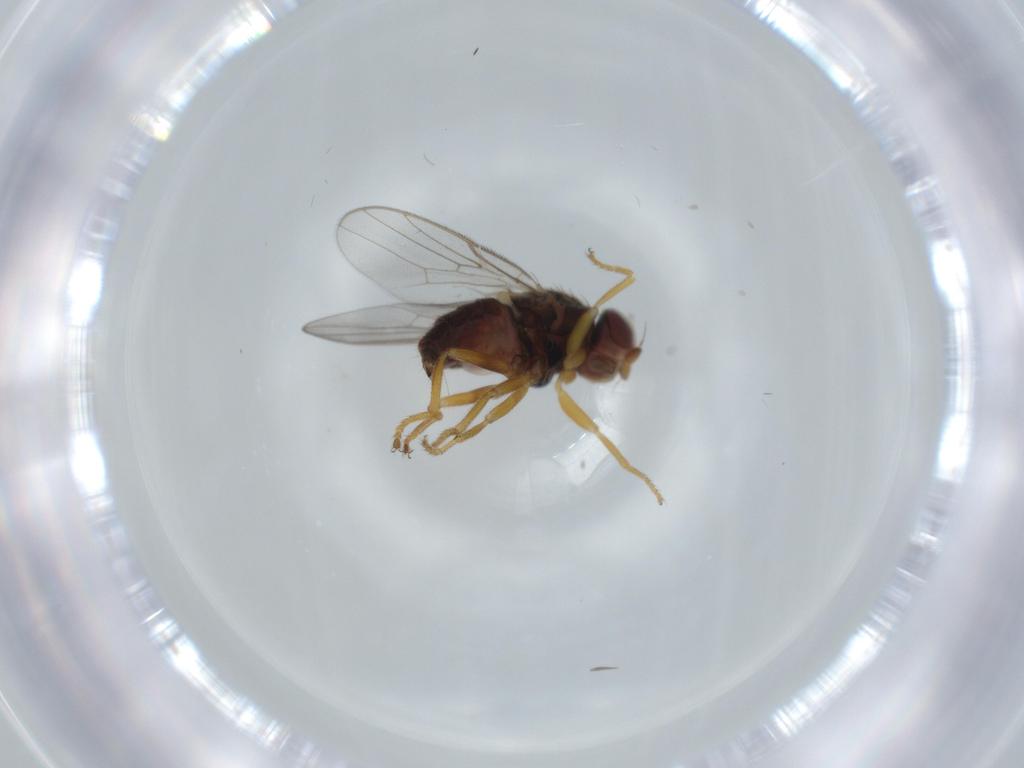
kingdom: Animalia
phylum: Arthropoda
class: Insecta
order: Diptera
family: Chloropidae
